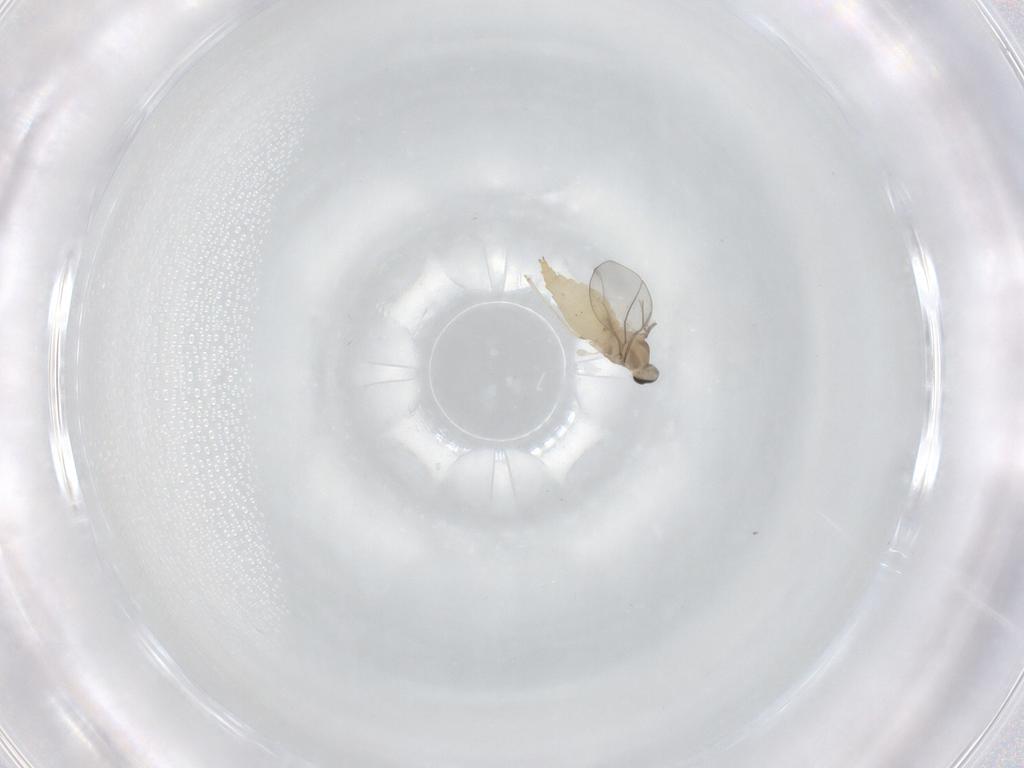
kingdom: Animalia
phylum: Arthropoda
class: Insecta
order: Diptera
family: Cecidomyiidae
